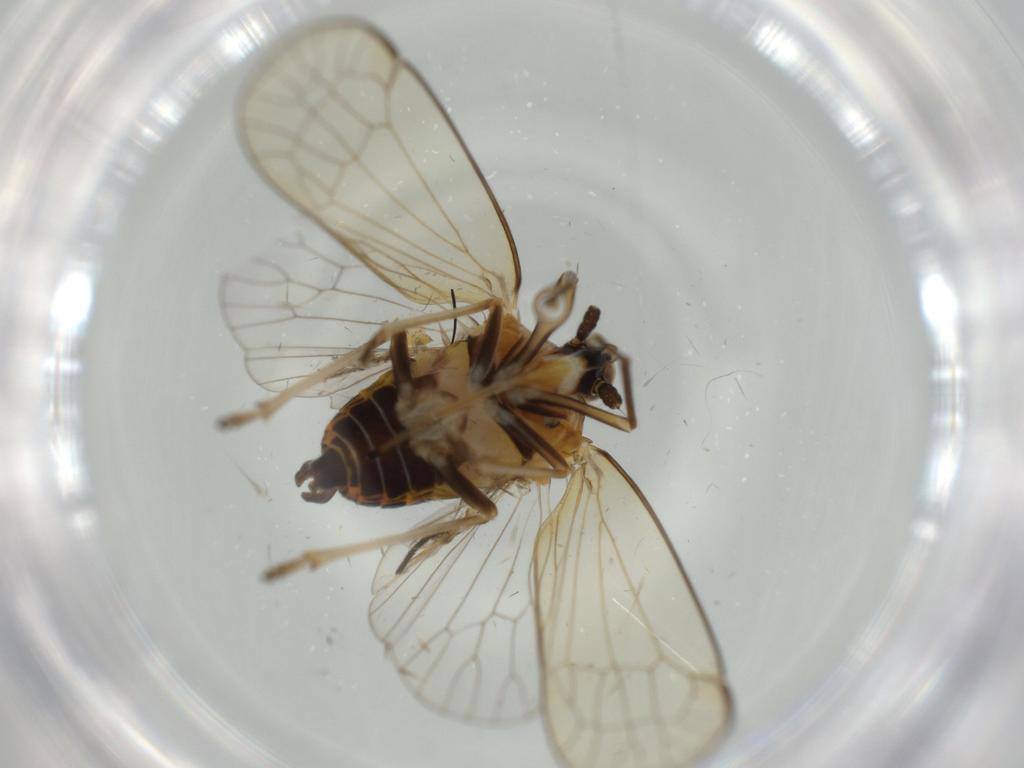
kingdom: Animalia
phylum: Arthropoda
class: Insecta
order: Hemiptera
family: Kinnaridae
